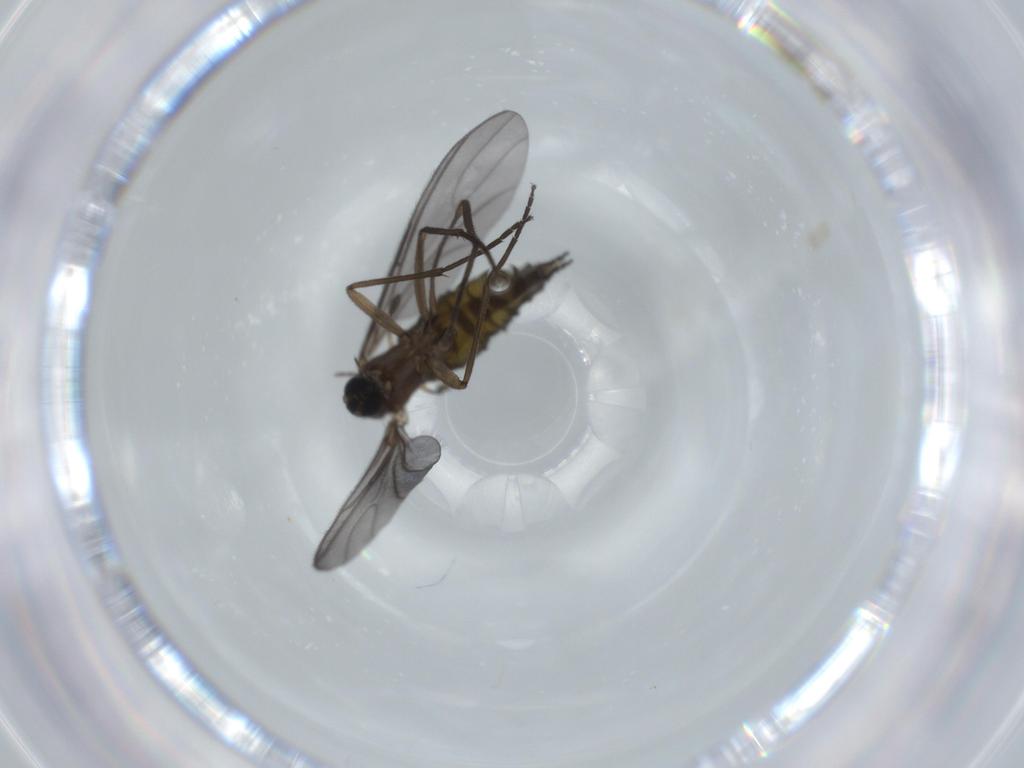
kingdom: Animalia
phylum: Arthropoda
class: Insecta
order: Diptera
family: Sciaridae
